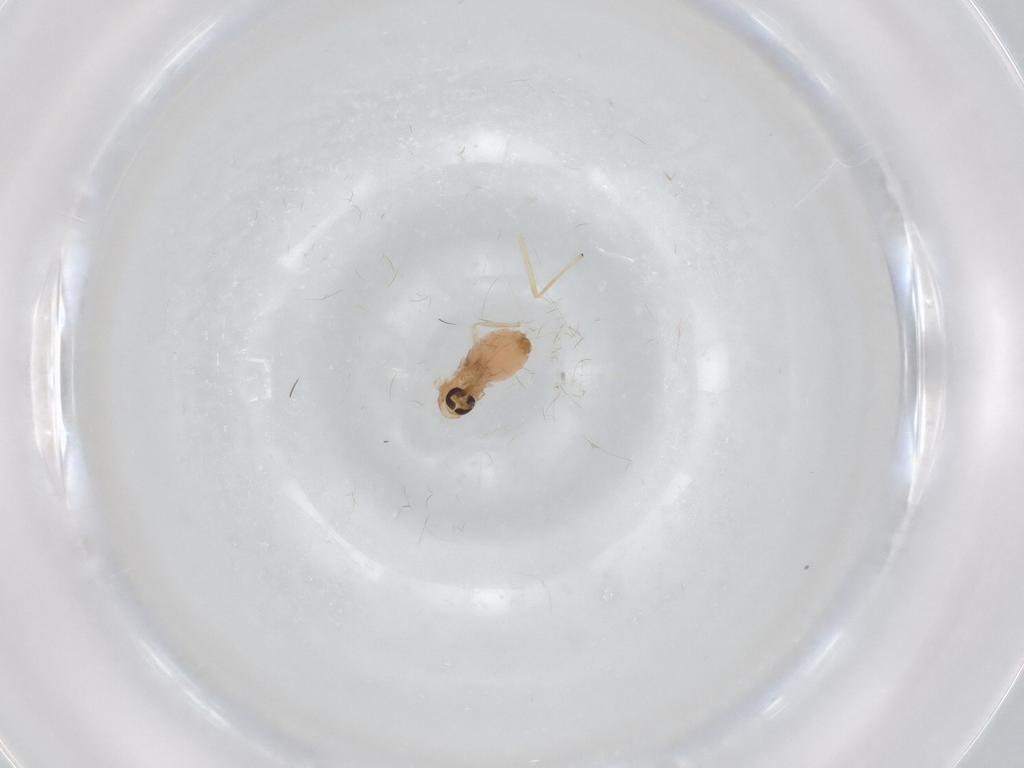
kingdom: Animalia
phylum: Arthropoda
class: Insecta
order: Diptera
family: Psychodidae
